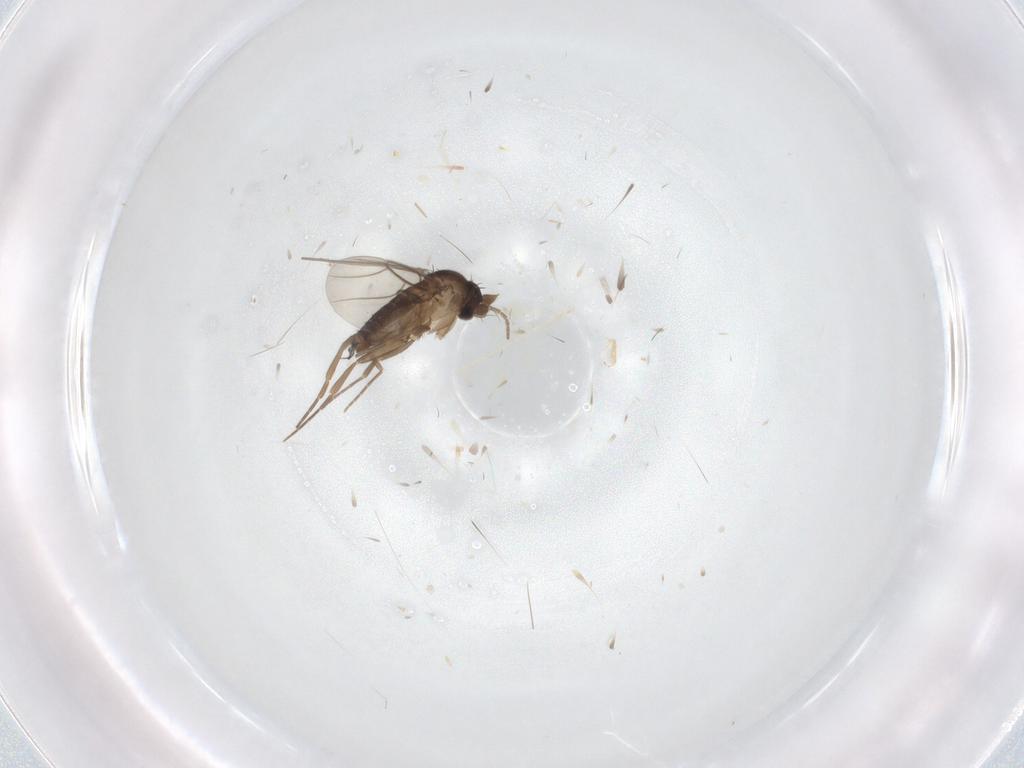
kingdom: Animalia
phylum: Arthropoda
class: Insecta
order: Diptera
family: Phoridae
